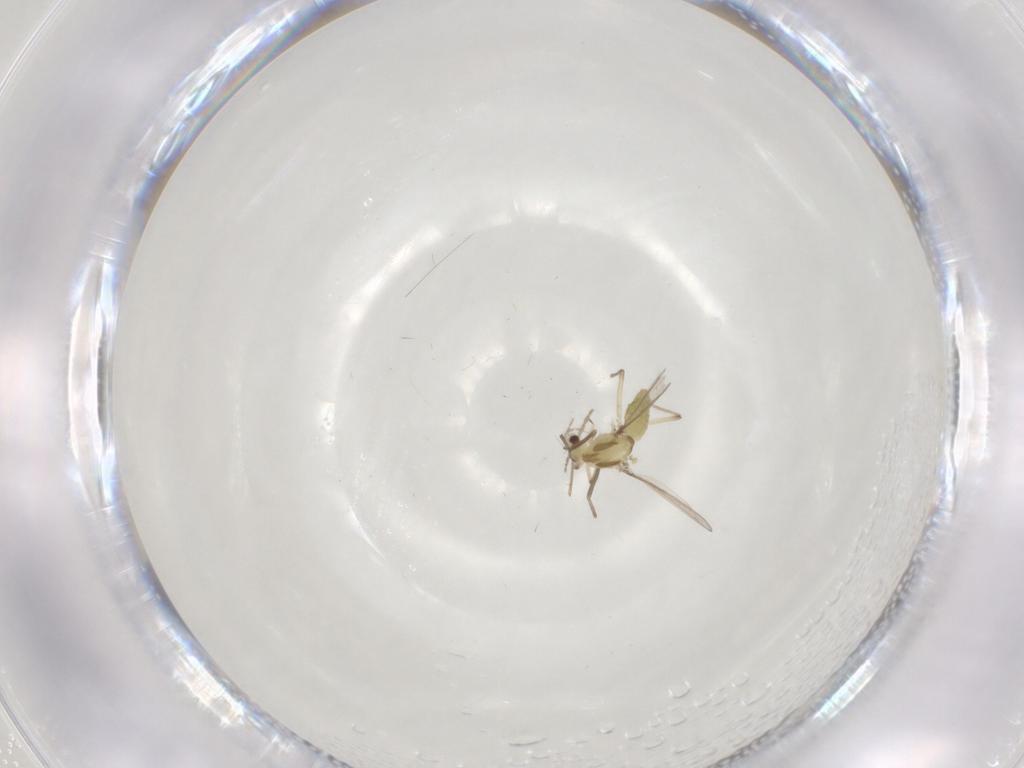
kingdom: Animalia
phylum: Arthropoda
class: Insecta
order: Diptera
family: Chironomidae
